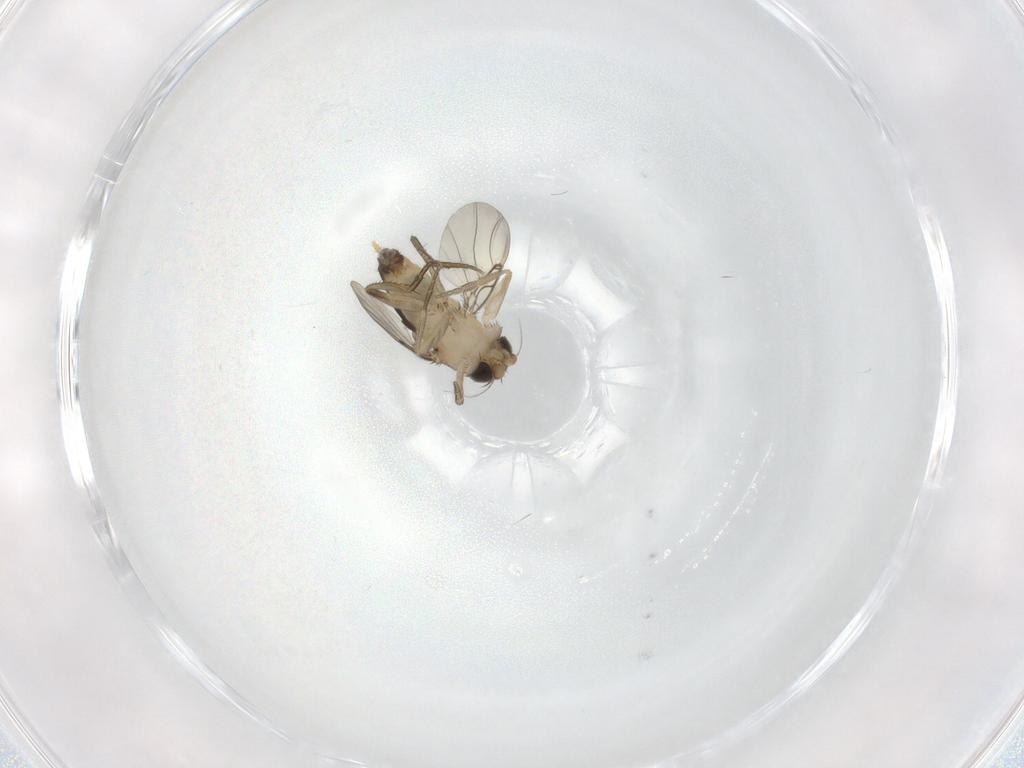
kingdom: Animalia
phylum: Arthropoda
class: Insecta
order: Diptera
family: Phoridae
